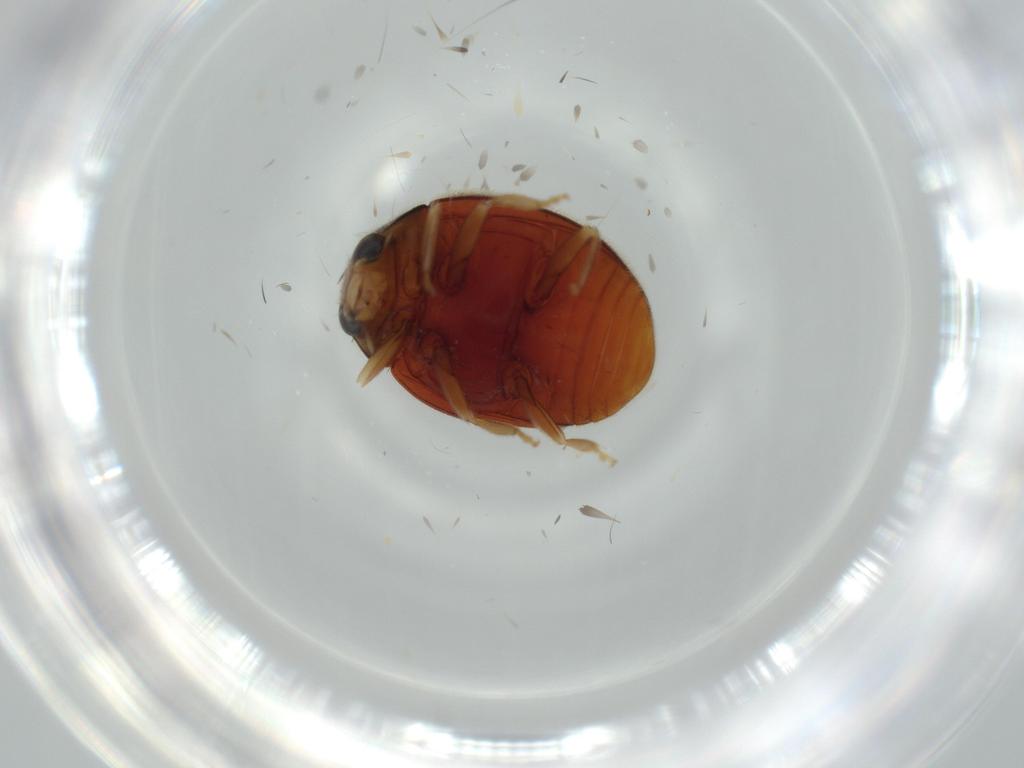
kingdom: Animalia
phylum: Arthropoda
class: Insecta
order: Coleoptera
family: Coccinellidae
